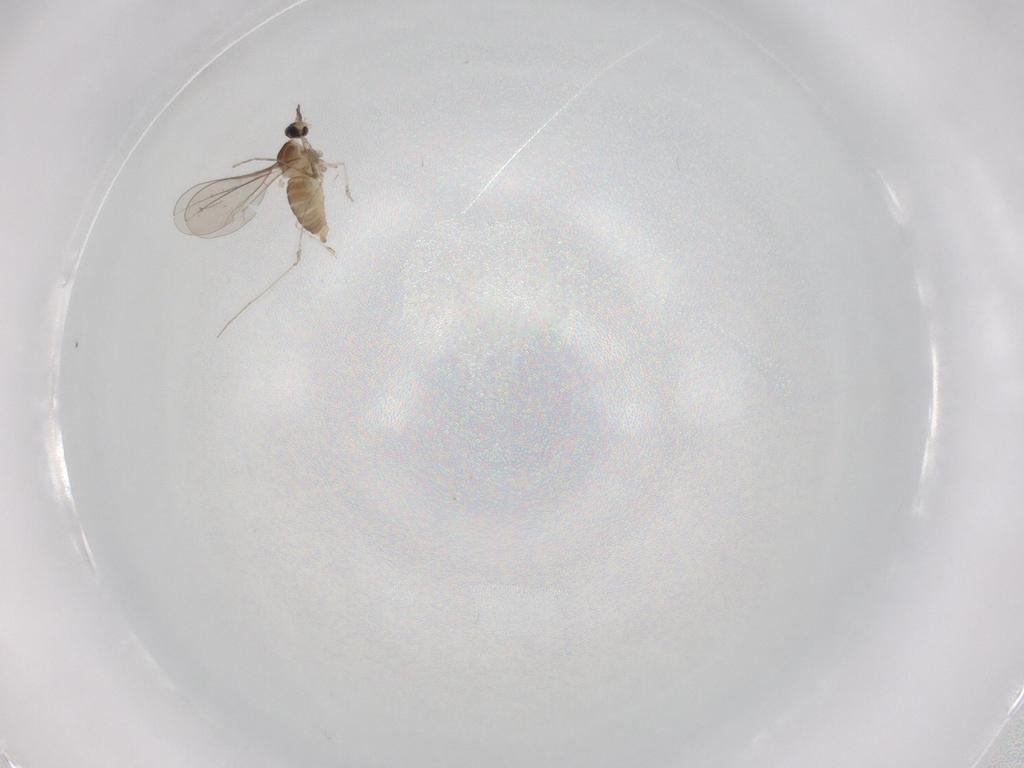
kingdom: Animalia
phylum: Arthropoda
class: Insecta
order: Diptera
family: Cecidomyiidae
